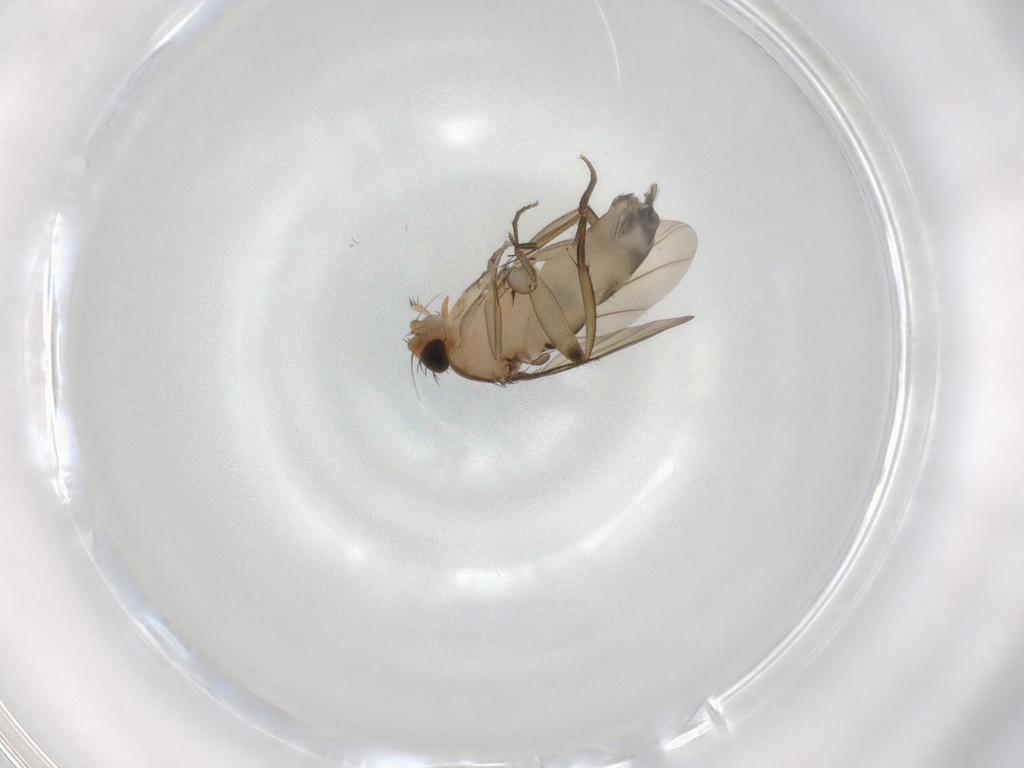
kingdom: Animalia
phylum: Arthropoda
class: Insecta
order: Diptera
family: Phoridae
